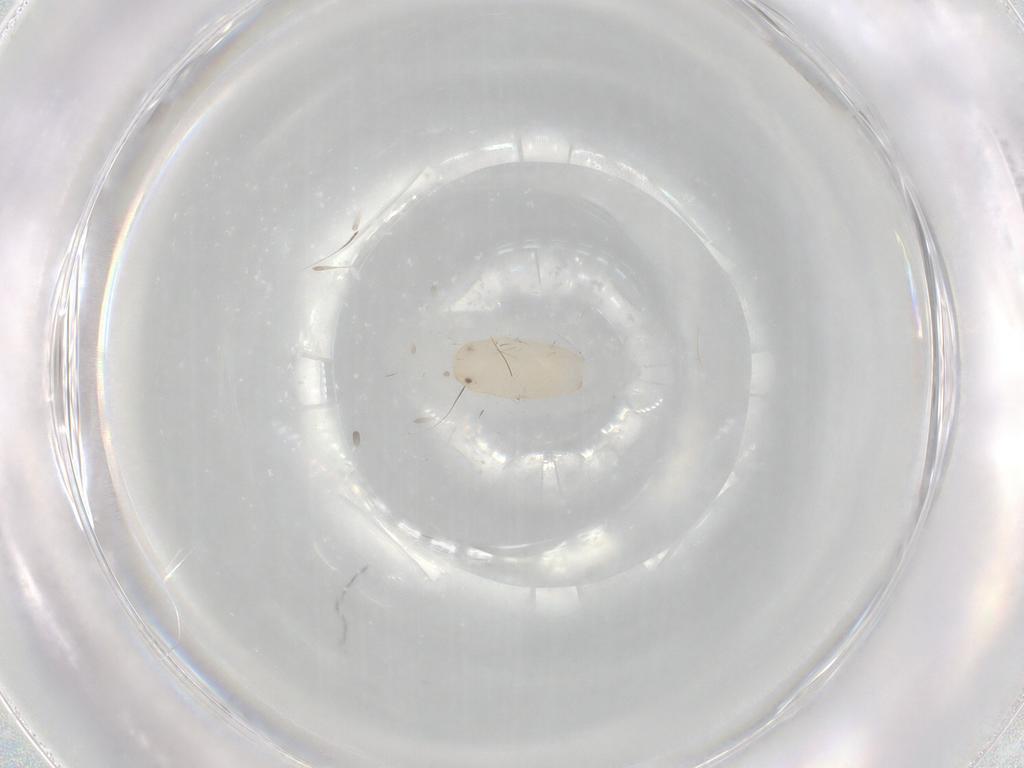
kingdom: Animalia
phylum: Arthropoda
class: Insecta
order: Hymenoptera
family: Formicidae
